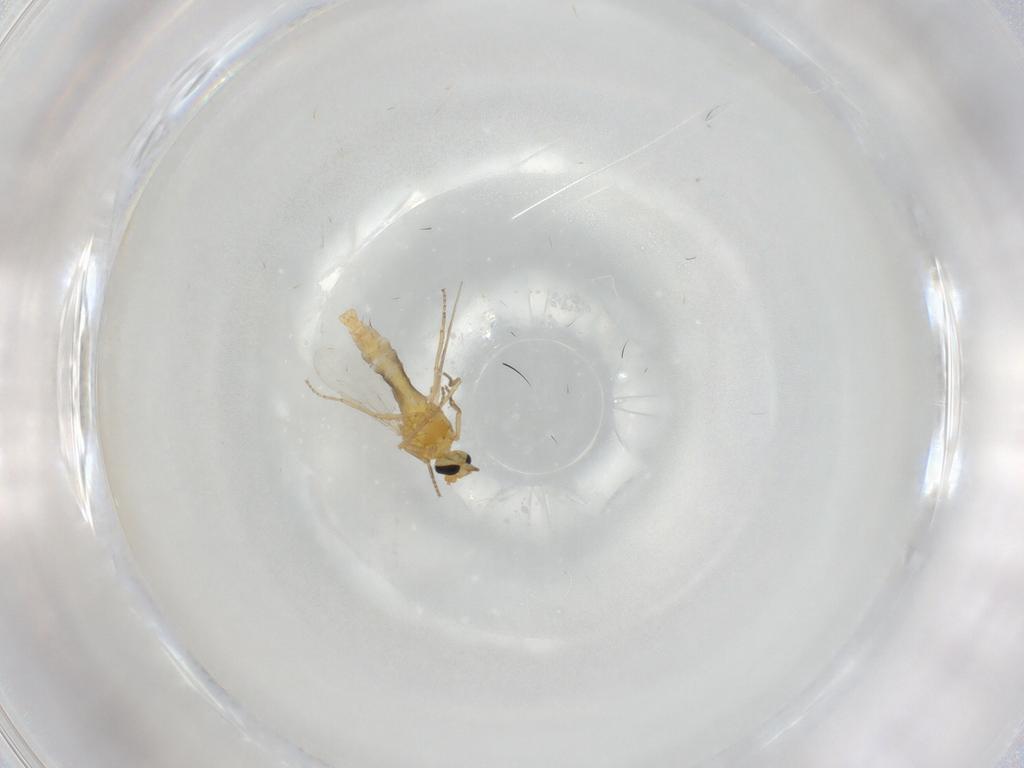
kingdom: Animalia
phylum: Arthropoda
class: Insecta
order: Diptera
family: Ceratopogonidae
